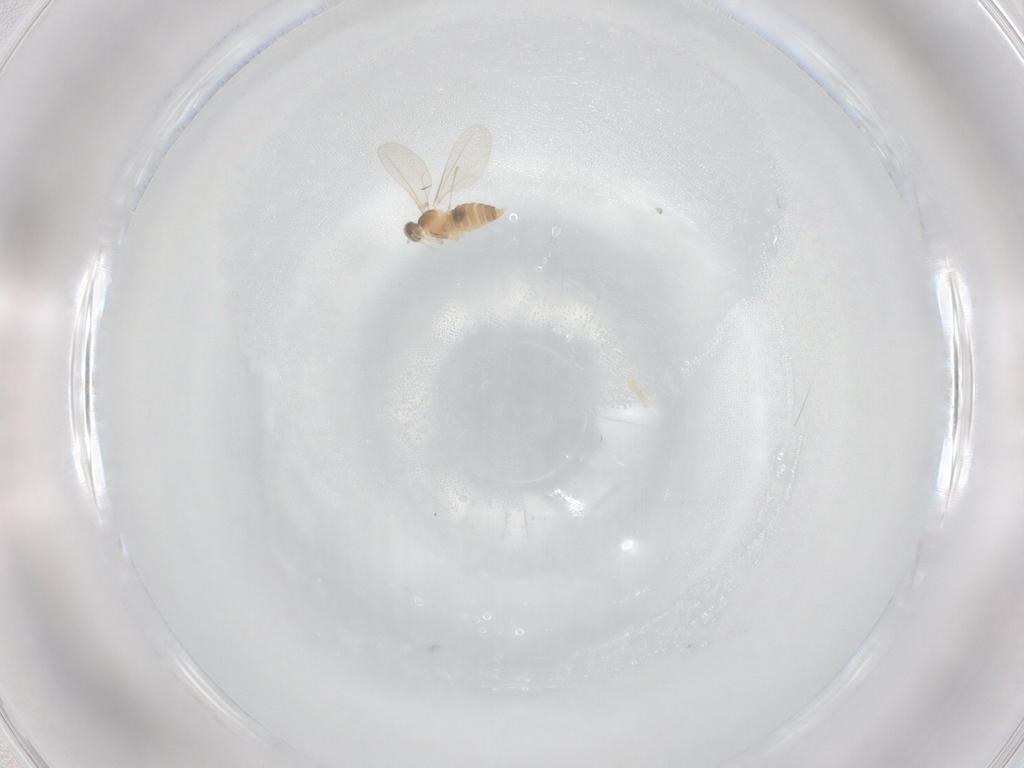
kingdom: Animalia
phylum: Arthropoda
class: Insecta
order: Diptera
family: Cecidomyiidae
